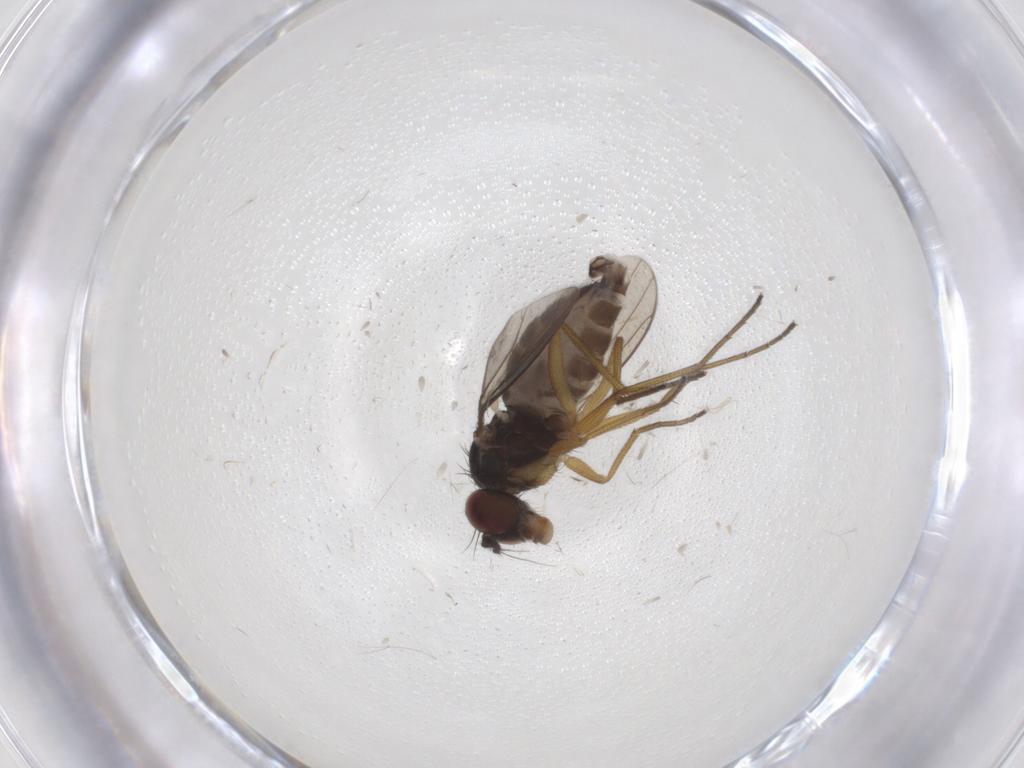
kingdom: Animalia
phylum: Arthropoda
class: Insecta
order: Diptera
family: Dolichopodidae
